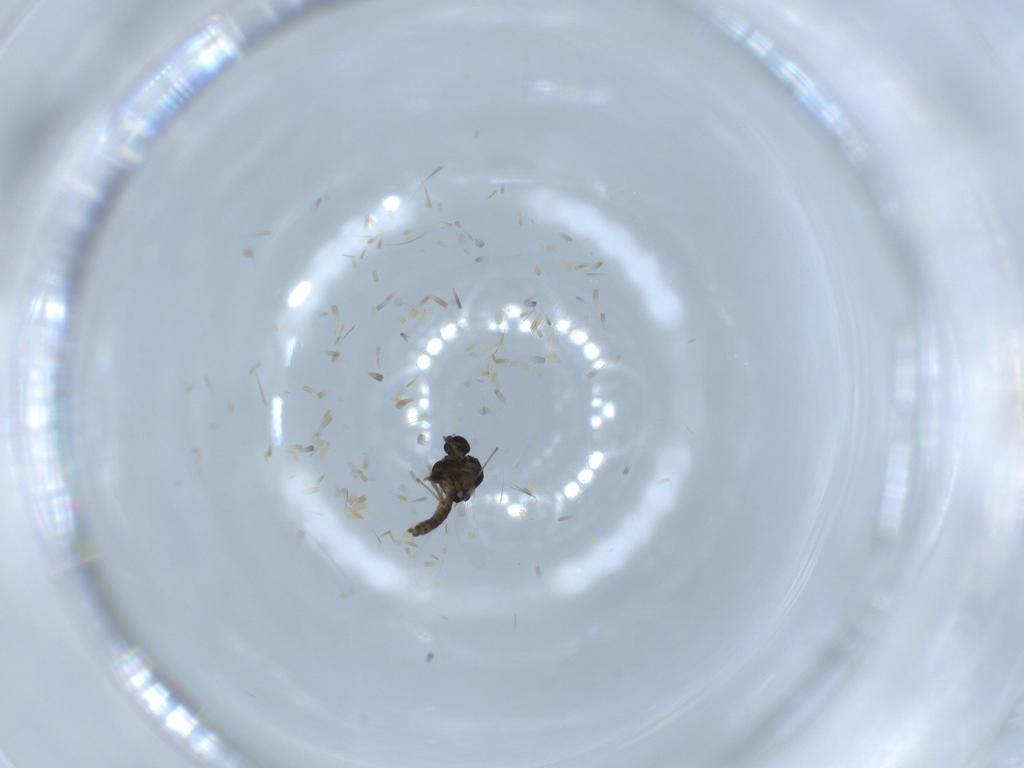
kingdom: Animalia
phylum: Arthropoda
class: Insecta
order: Diptera
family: Chironomidae
